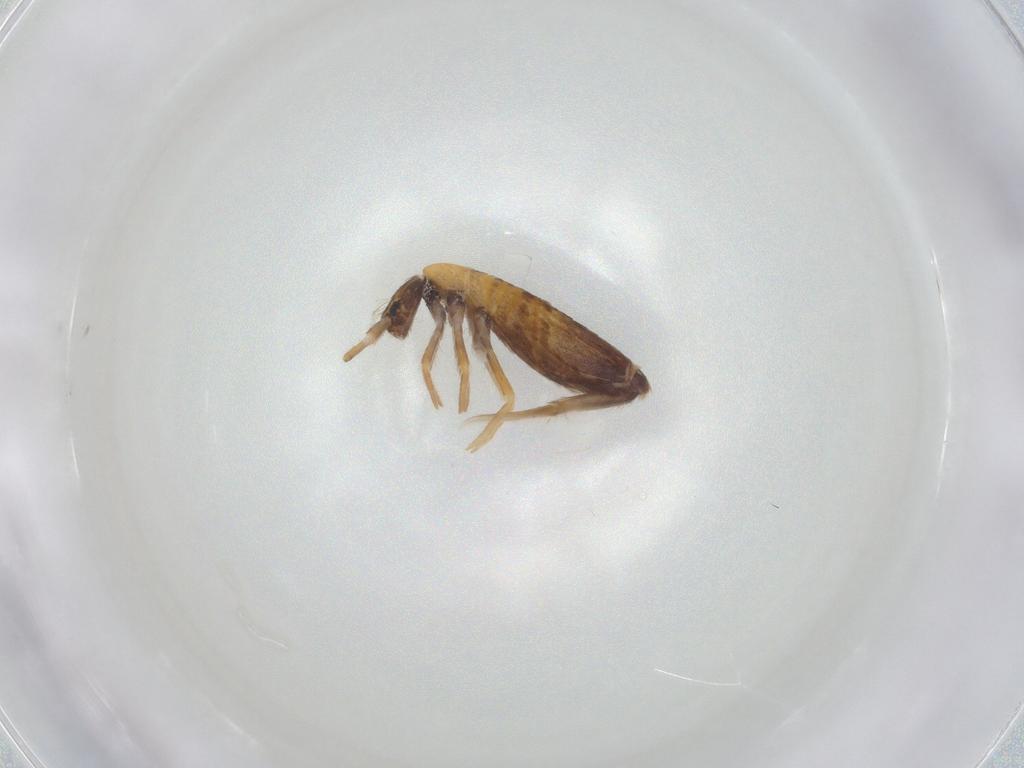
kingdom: Animalia
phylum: Arthropoda
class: Collembola
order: Entomobryomorpha
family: Entomobryidae
